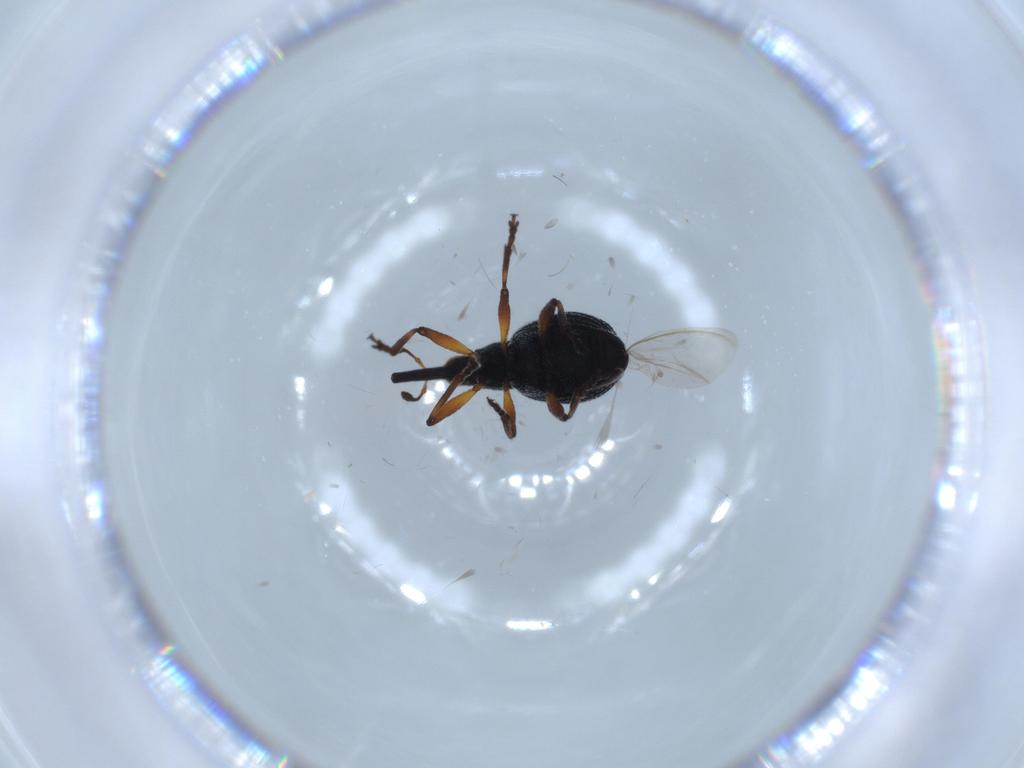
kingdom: Animalia
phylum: Arthropoda
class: Insecta
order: Coleoptera
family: Brentidae
